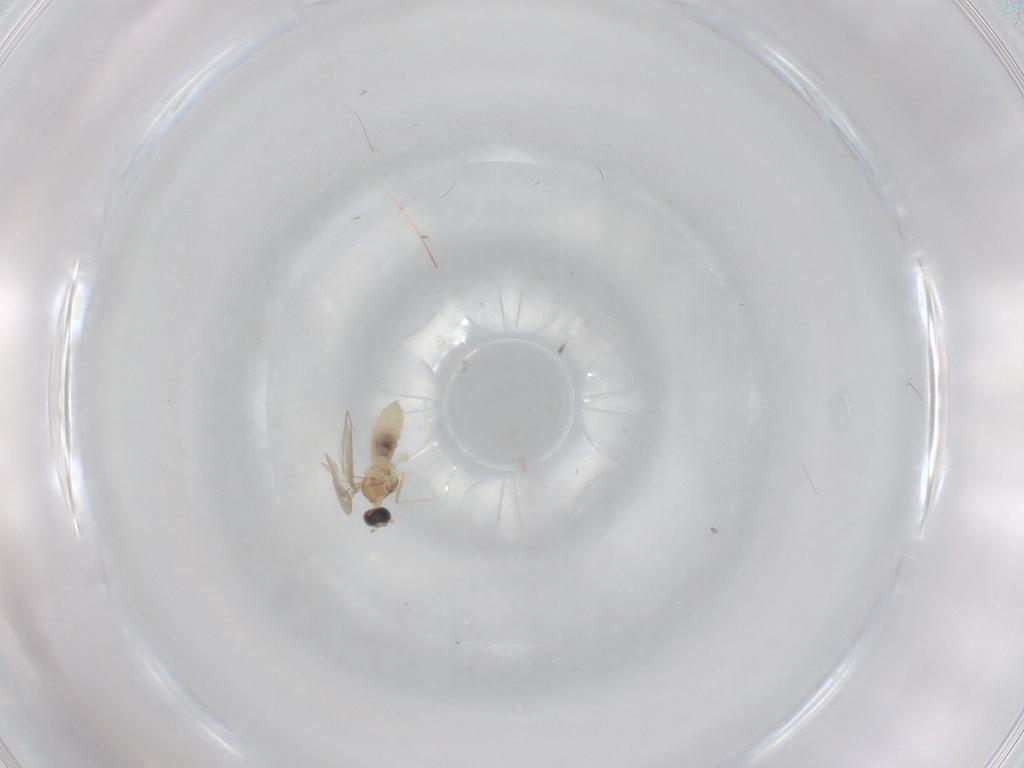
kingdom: Animalia
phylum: Arthropoda
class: Insecta
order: Diptera
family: Cecidomyiidae
